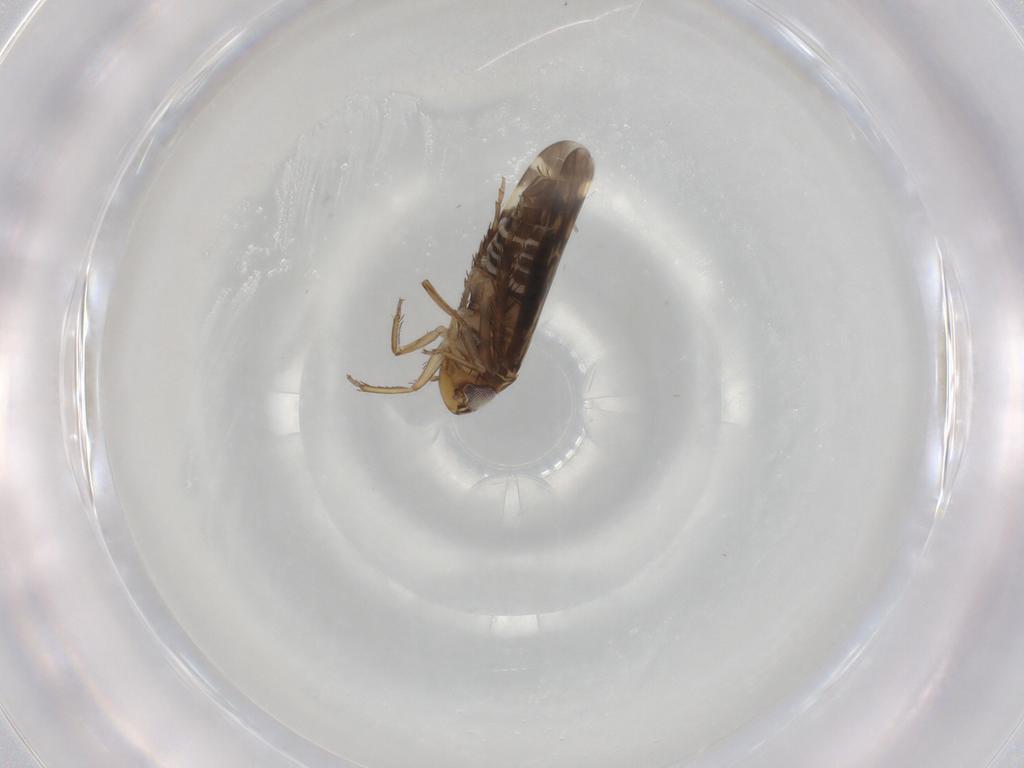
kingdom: Animalia
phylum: Arthropoda
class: Insecta
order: Hemiptera
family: Cicadellidae
